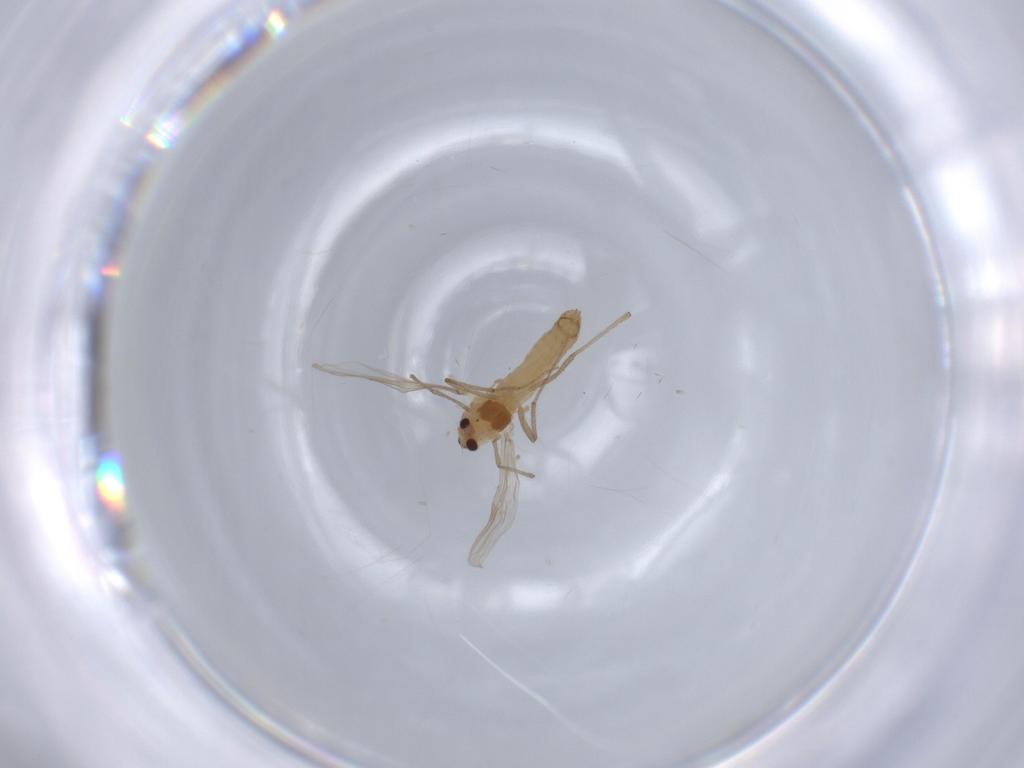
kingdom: Animalia
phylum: Arthropoda
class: Insecta
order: Diptera
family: Chironomidae
